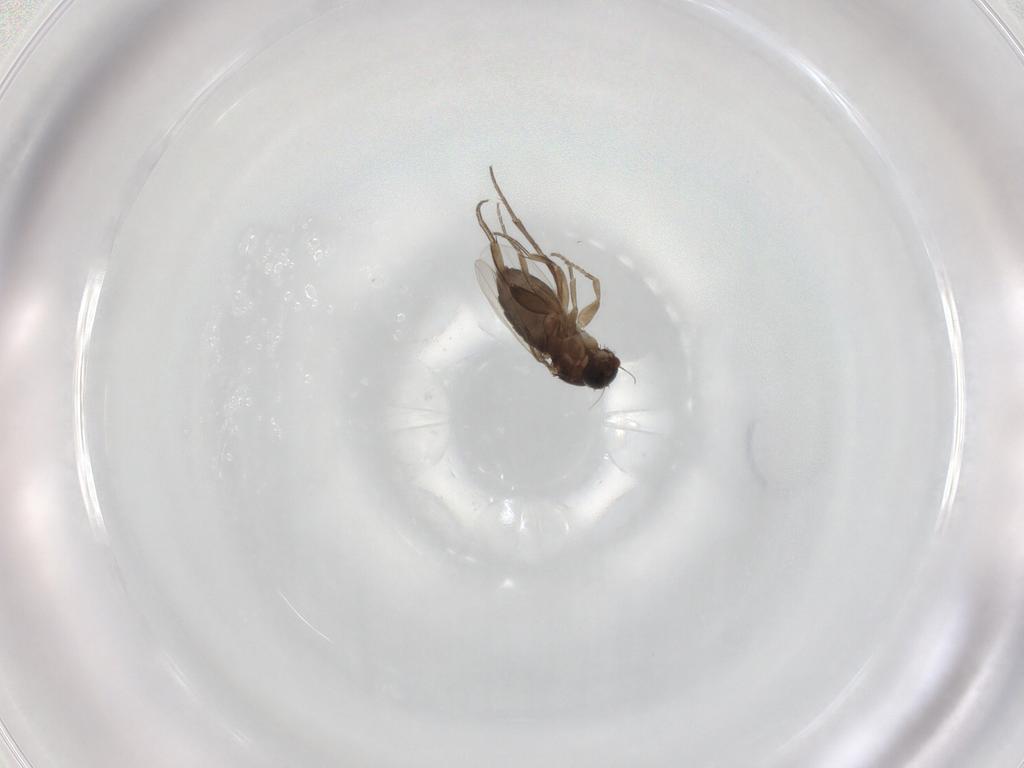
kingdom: Animalia
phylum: Arthropoda
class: Insecta
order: Diptera
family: Phoridae
